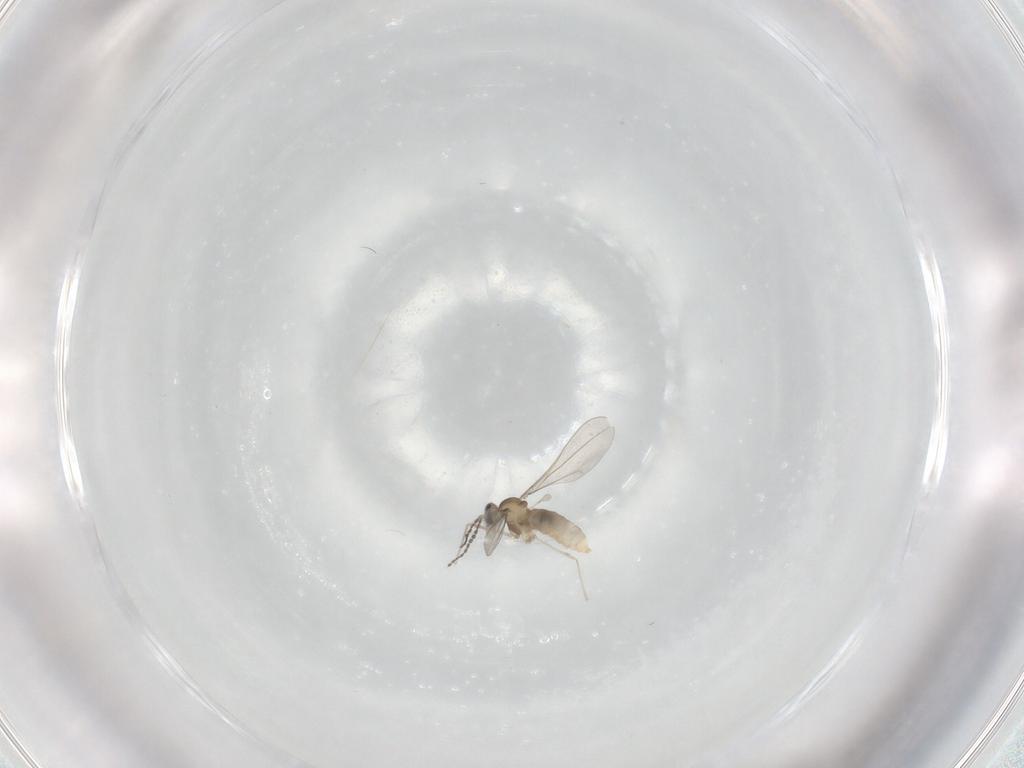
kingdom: Animalia
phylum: Arthropoda
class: Insecta
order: Diptera
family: Cecidomyiidae
